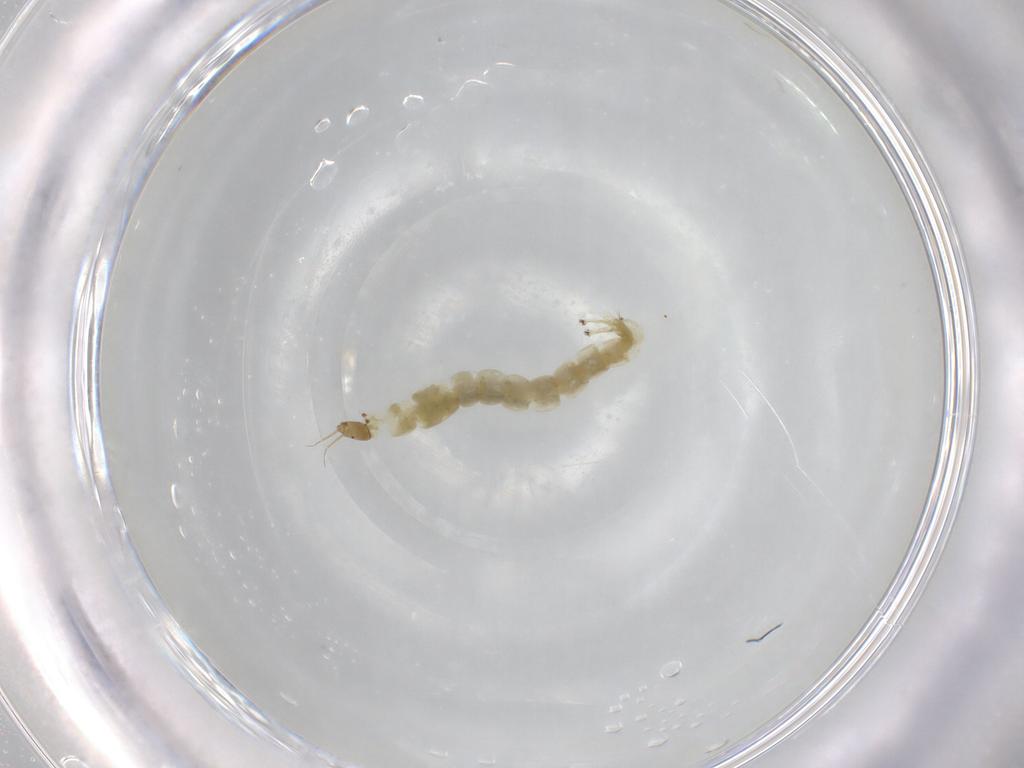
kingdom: Animalia
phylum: Arthropoda
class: Insecta
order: Diptera
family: Chironomidae
